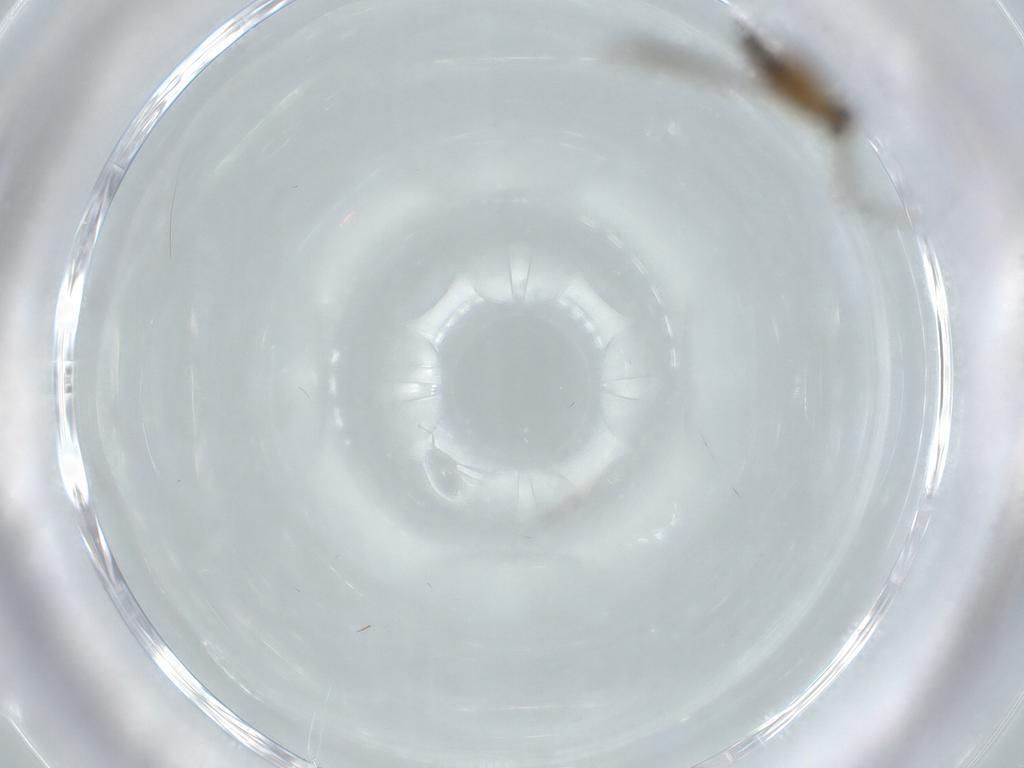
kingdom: Animalia
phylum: Arthropoda
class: Insecta
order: Diptera
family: Chironomidae
